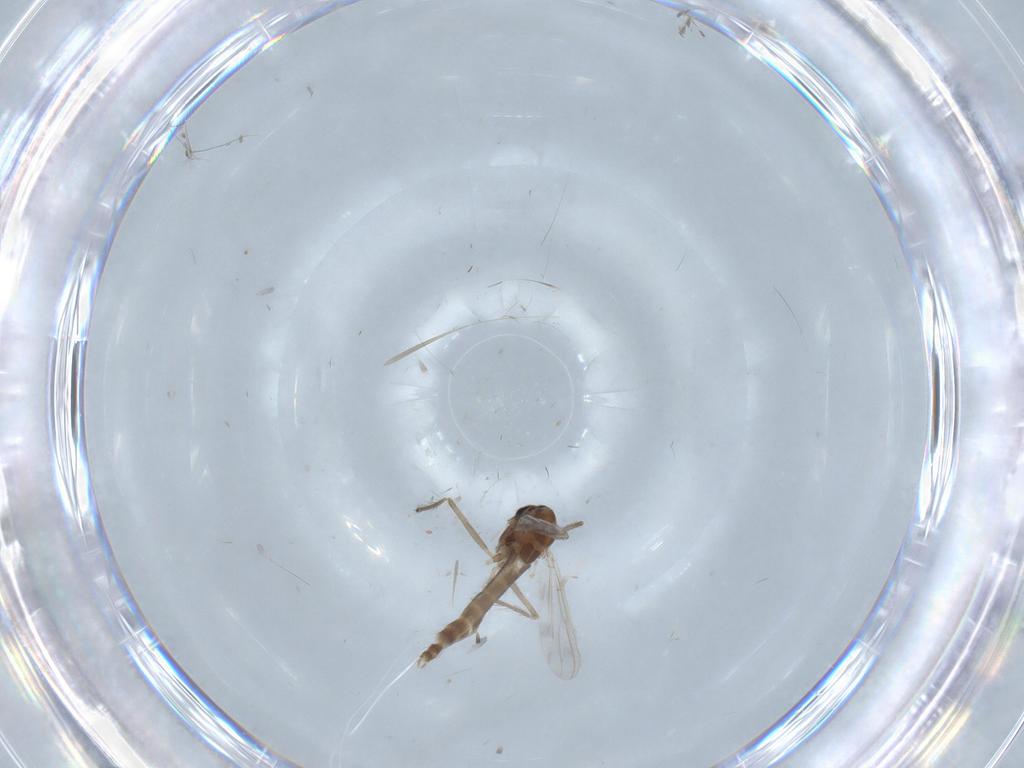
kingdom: Animalia
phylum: Arthropoda
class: Insecta
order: Diptera
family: Chironomidae
